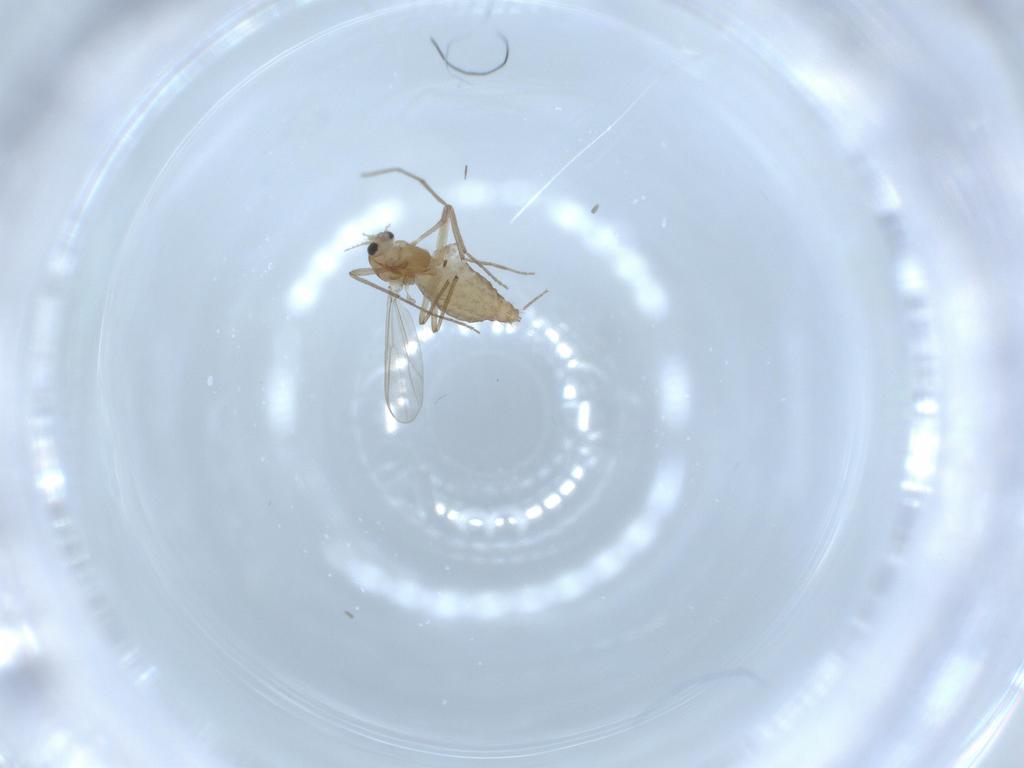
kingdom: Animalia
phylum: Arthropoda
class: Insecta
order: Diptera
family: Chironomidae
